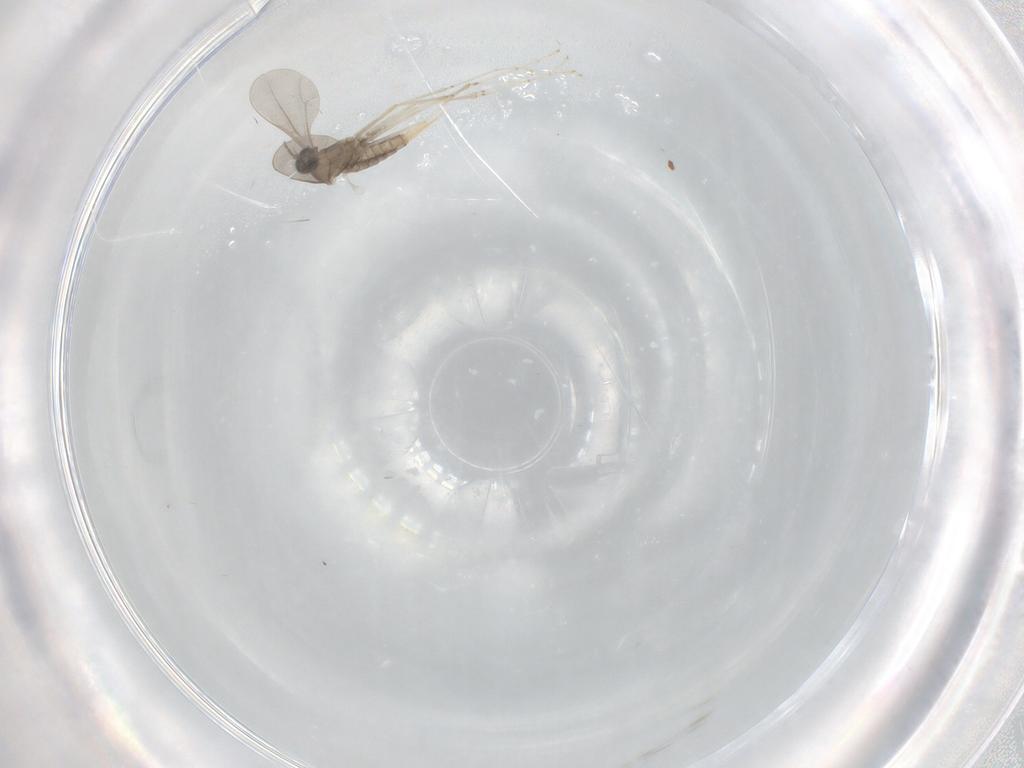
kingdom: Animalia
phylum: Arthropoda
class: Insecta
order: Diptera
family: Cecidomyiidae
